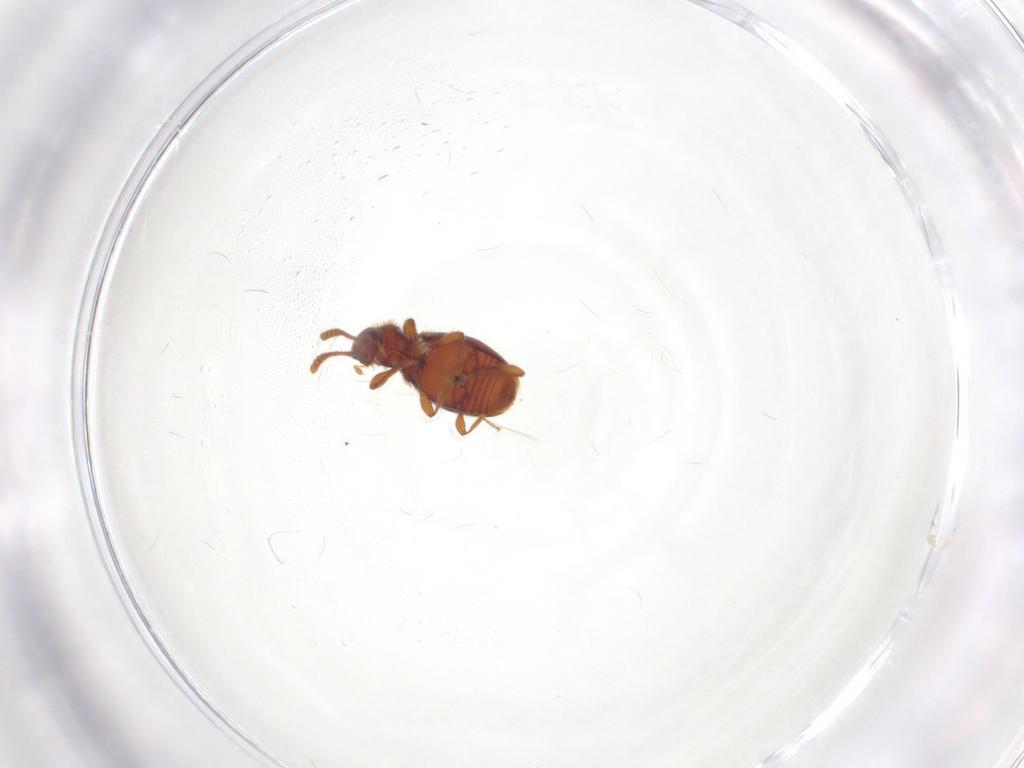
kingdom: Animalia
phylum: Arthropoda
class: Insecta
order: Coleoptera
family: Staphylinidae
